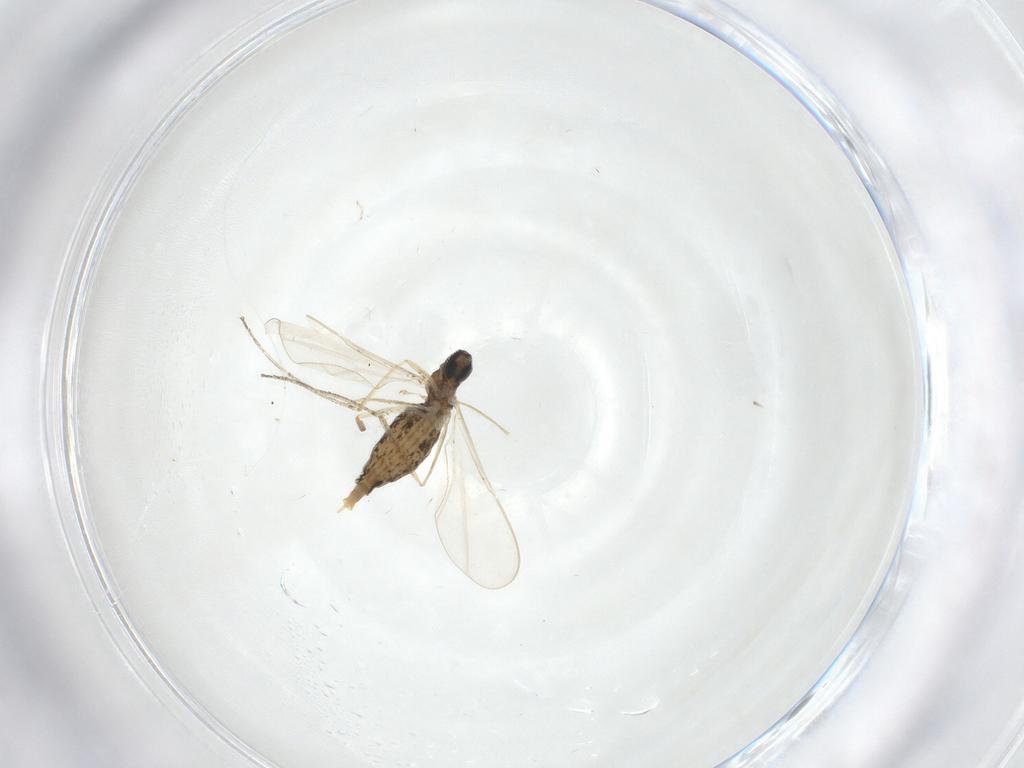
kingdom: Animalia
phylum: Arthropoda
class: Insecta
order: Diptera
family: Cecidomyiidae
